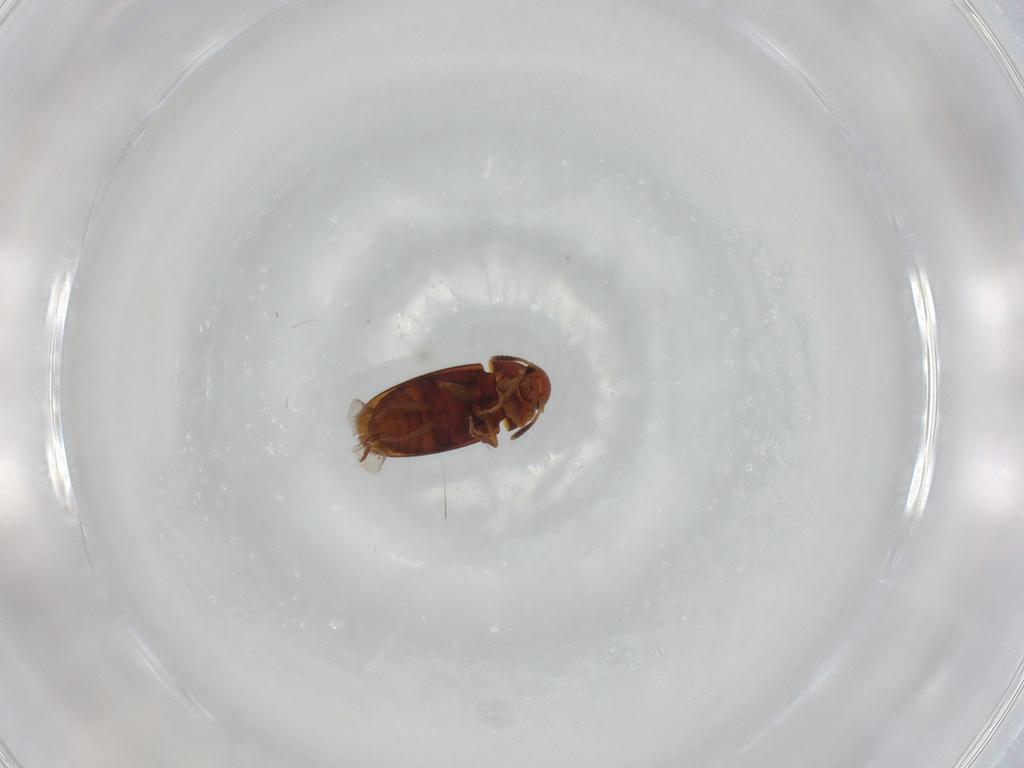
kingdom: Animalia
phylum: Arthropoda
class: Insecta
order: Coleoptera
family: Scraptiidae
